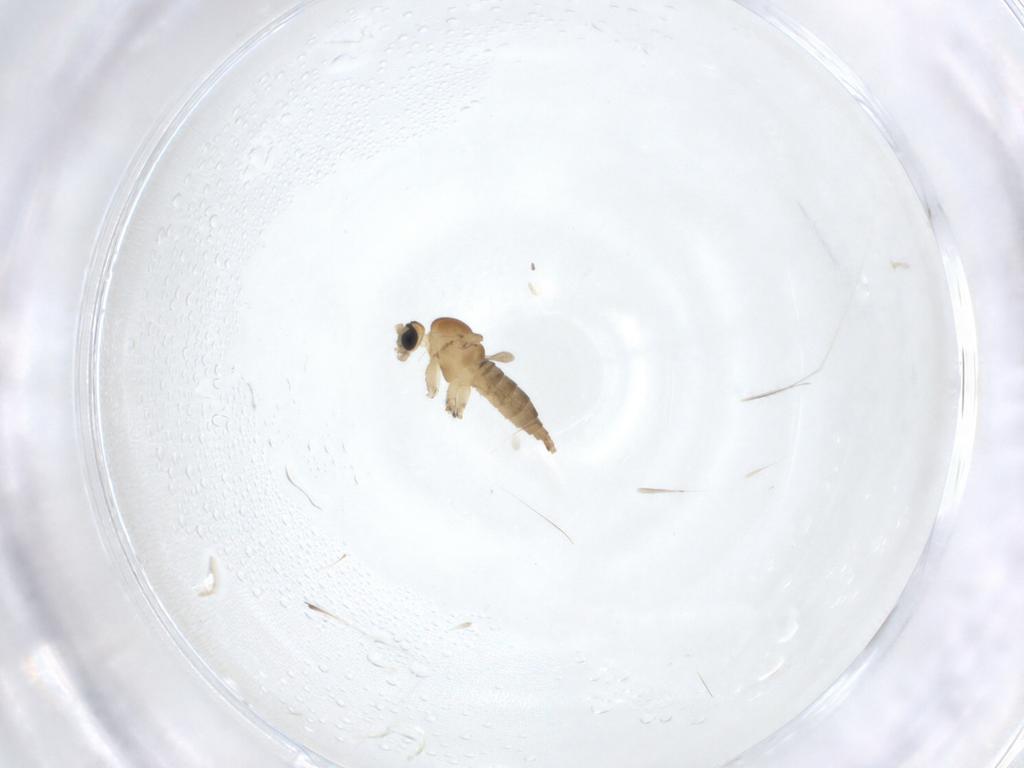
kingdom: Animalia
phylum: Arthropoda
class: Insecta
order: Diptera
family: Sciaridae
